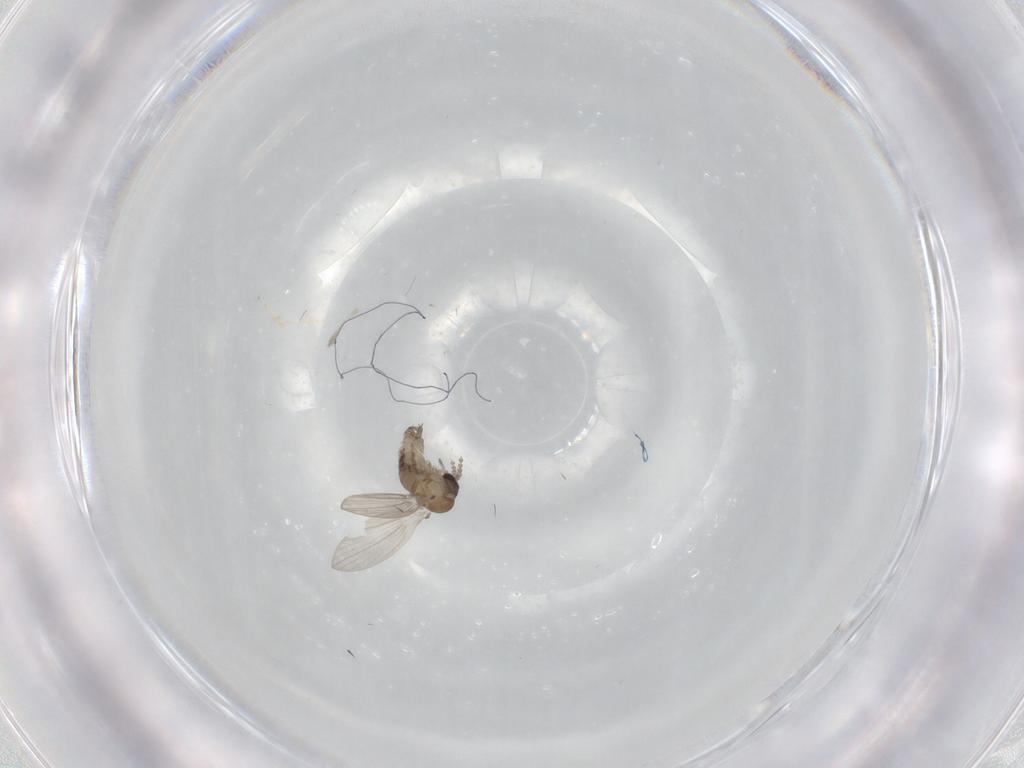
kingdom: Animalia
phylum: Arthropoda
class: Insecta
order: Diptera
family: Psychodidae
